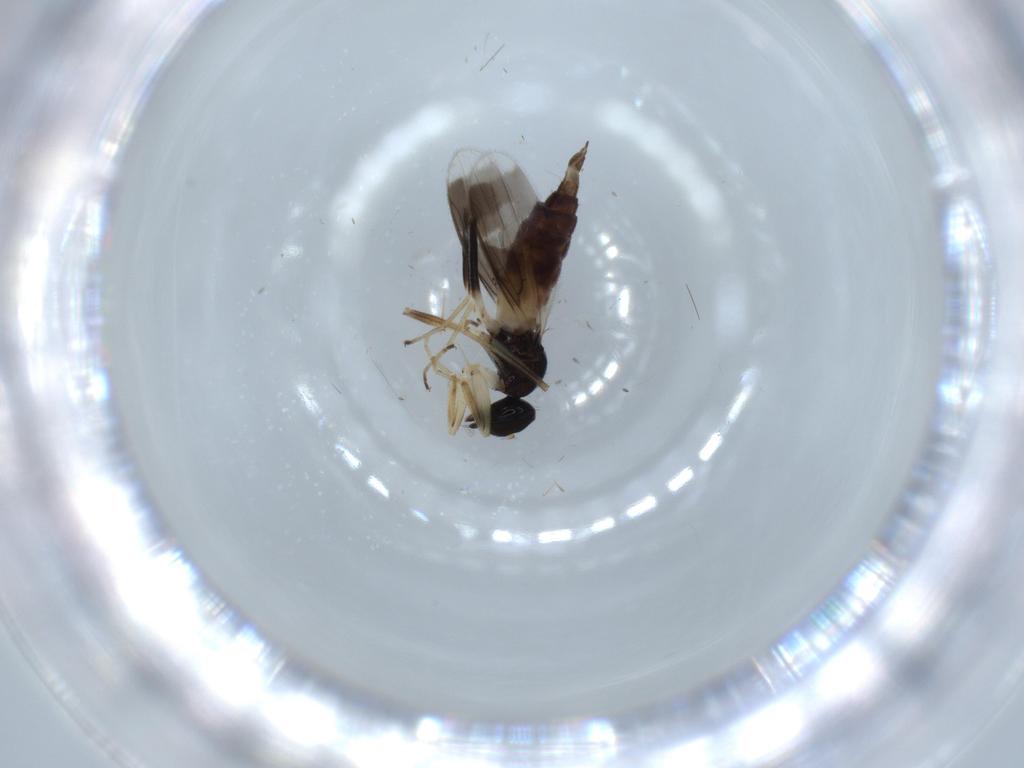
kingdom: Animalia
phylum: Arthropoda
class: Insecta
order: Diptera
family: Hybotidae
